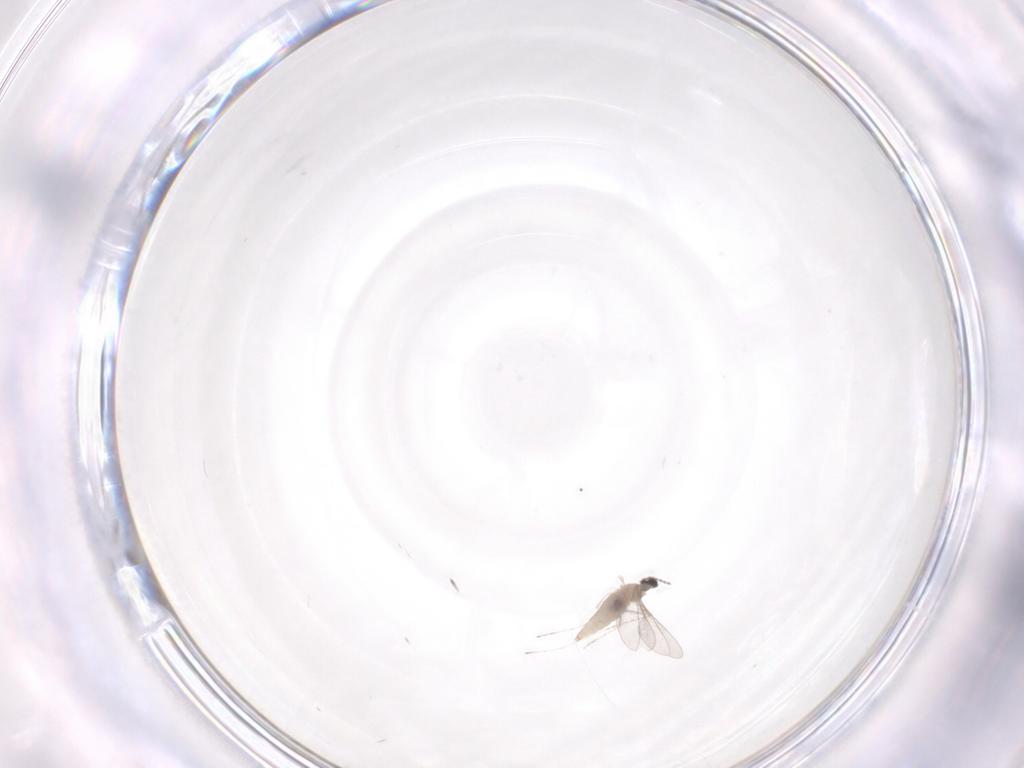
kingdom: Animalia
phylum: Arthropoda
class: Insecta
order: Diptera
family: Cecidomyiidae
